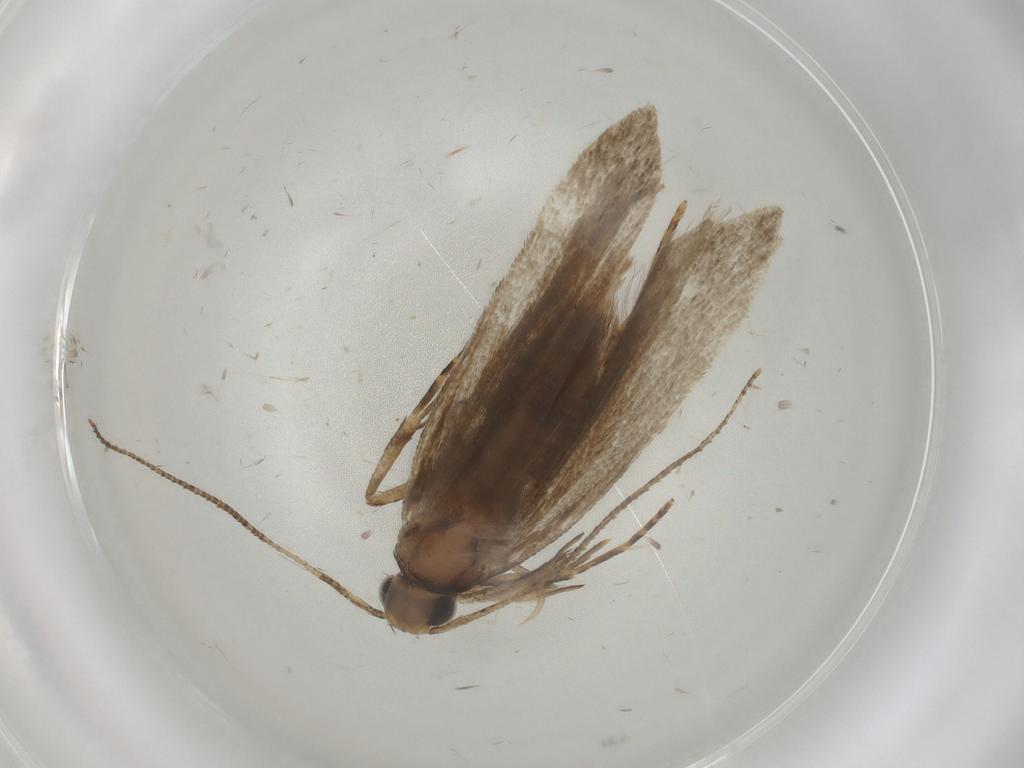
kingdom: Animalia
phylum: Arthropoda
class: Insecta
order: Lepidoptera
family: Gelechiidae
